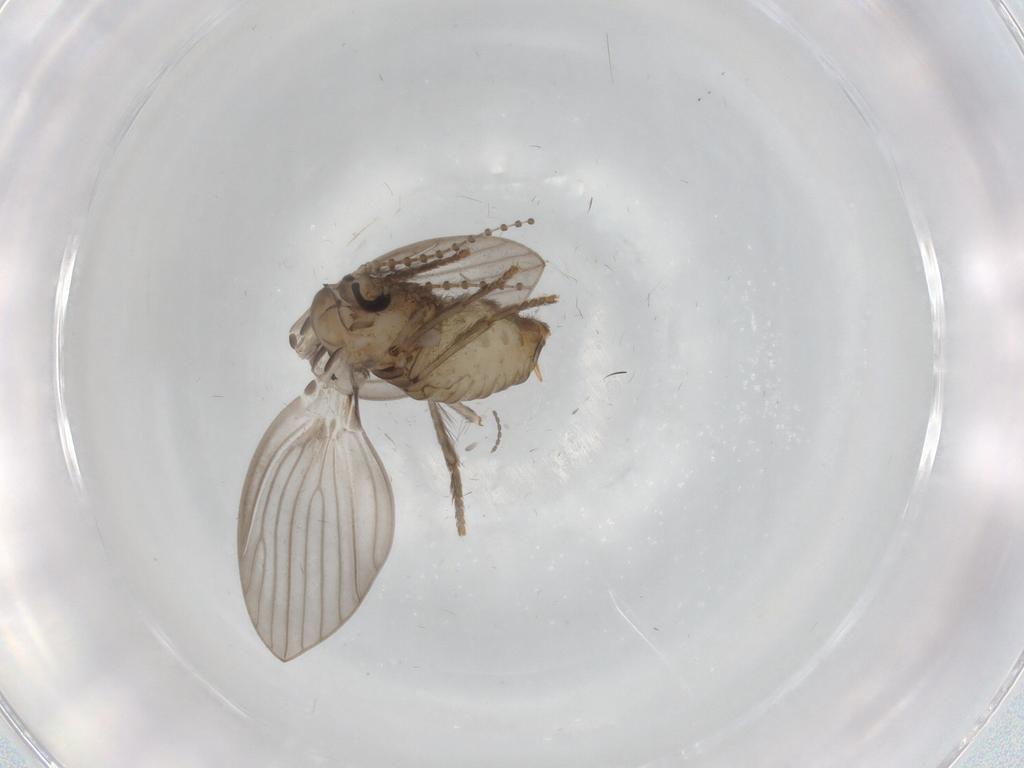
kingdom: Animalia
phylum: Arthropoda
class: Insecta
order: Diptera
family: Psychodidae
